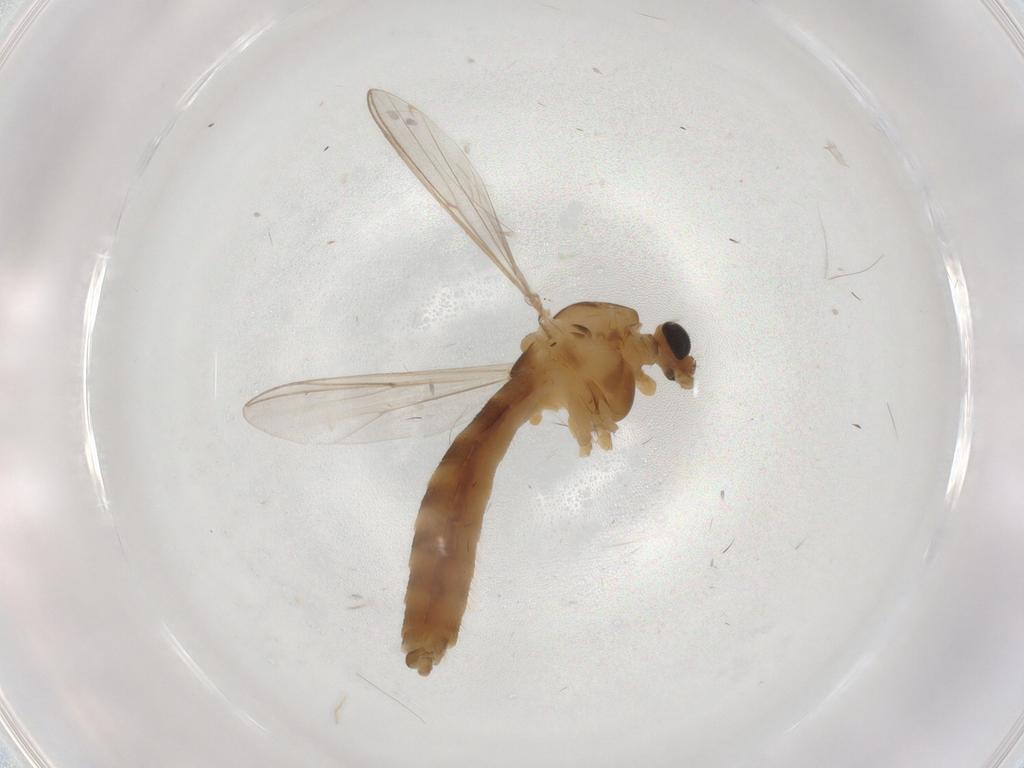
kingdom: Animalia
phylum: Arthropoda
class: Insecta
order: Diptera
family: Chironomidae
